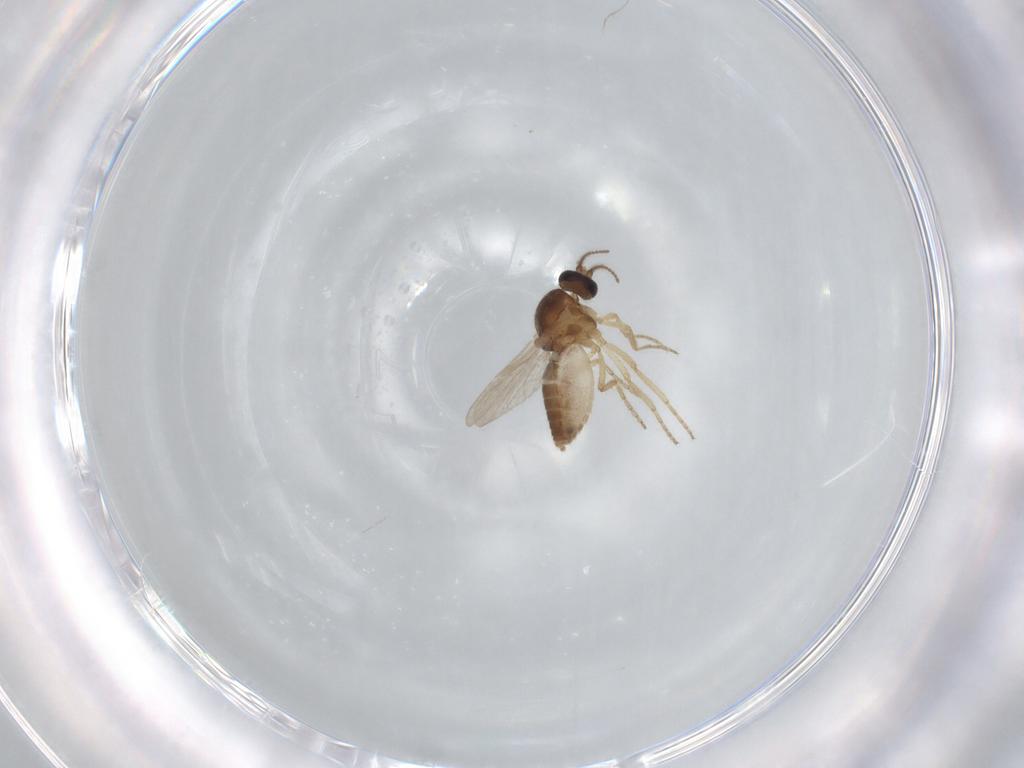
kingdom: Animalia
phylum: Arthropoda
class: Insecta
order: Diptera
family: Ceratopogonidae
